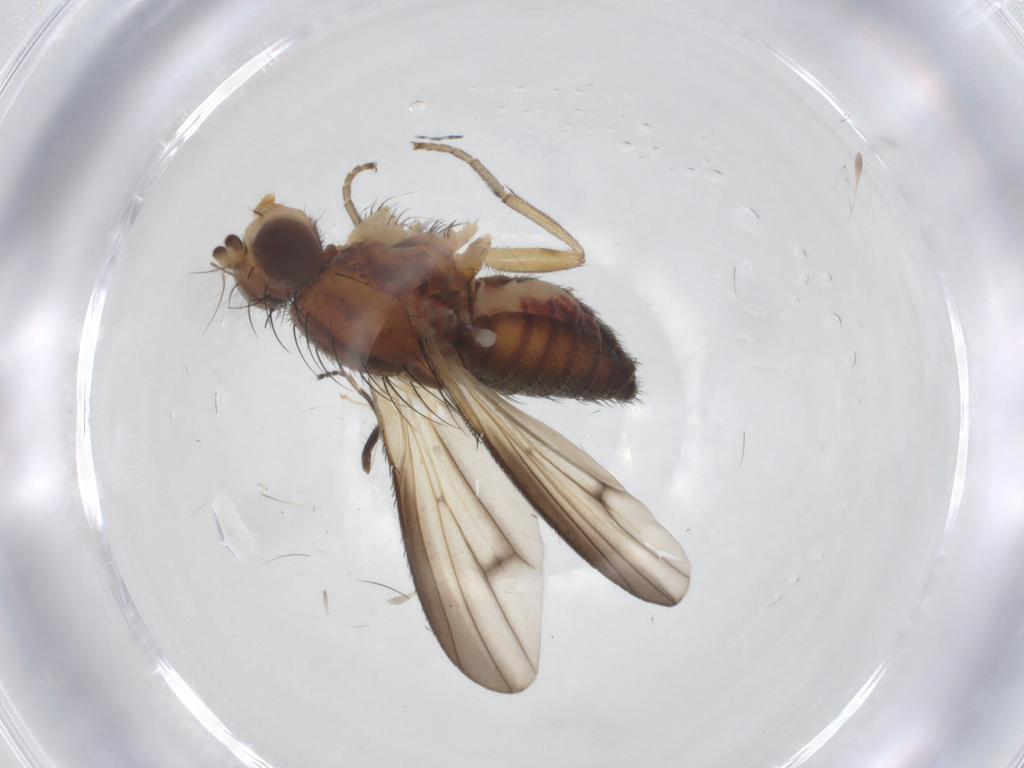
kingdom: Animalia
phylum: Arthropoda
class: Insecta
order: Diptera
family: Heleomyzidae
